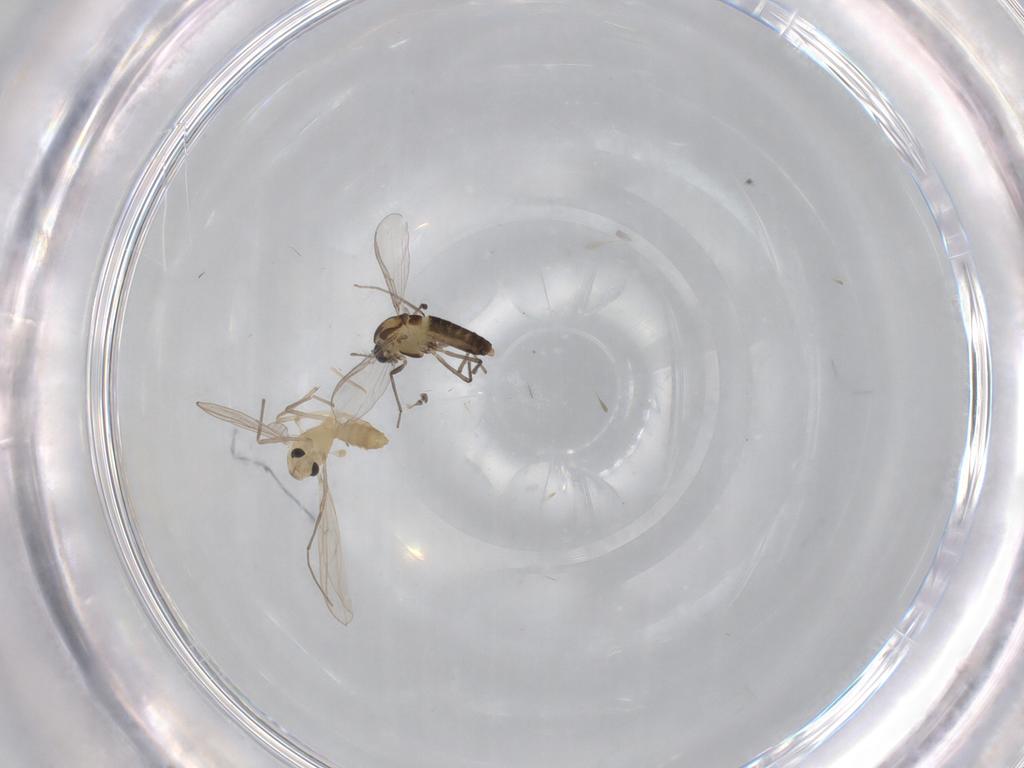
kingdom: Animalia
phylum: Arthropoda
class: Insecta
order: Diptera
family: Chironomidae
